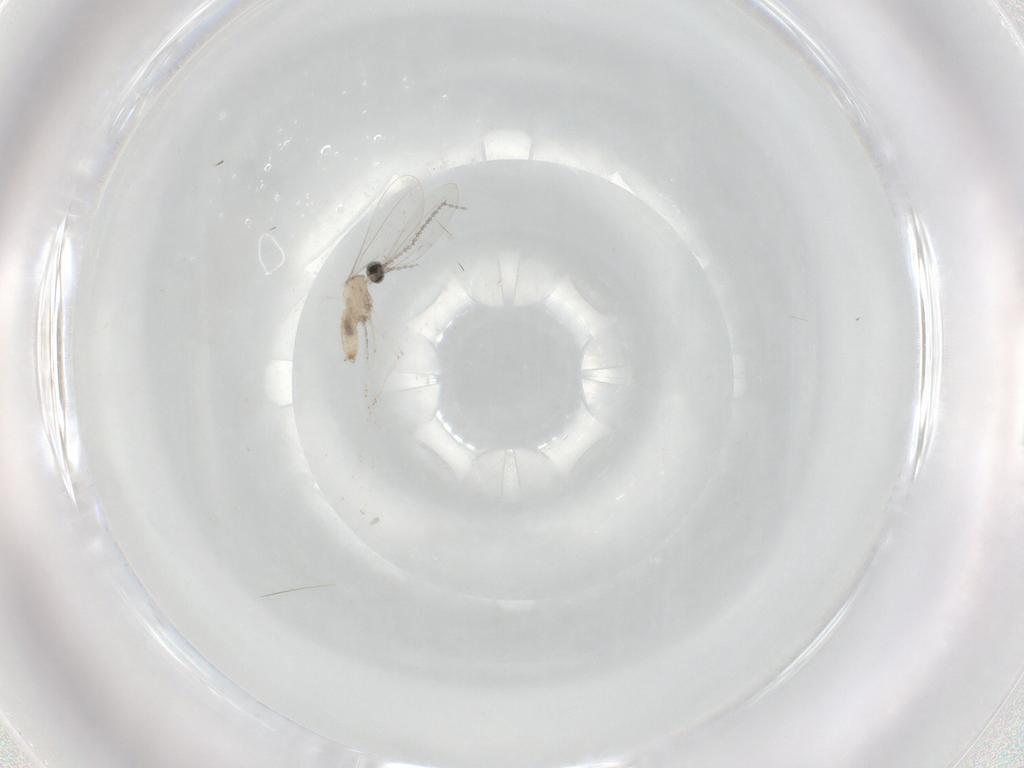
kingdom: Animalia
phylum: Arthropoda
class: Insecta
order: Diptera
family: Cecidomyiidae
